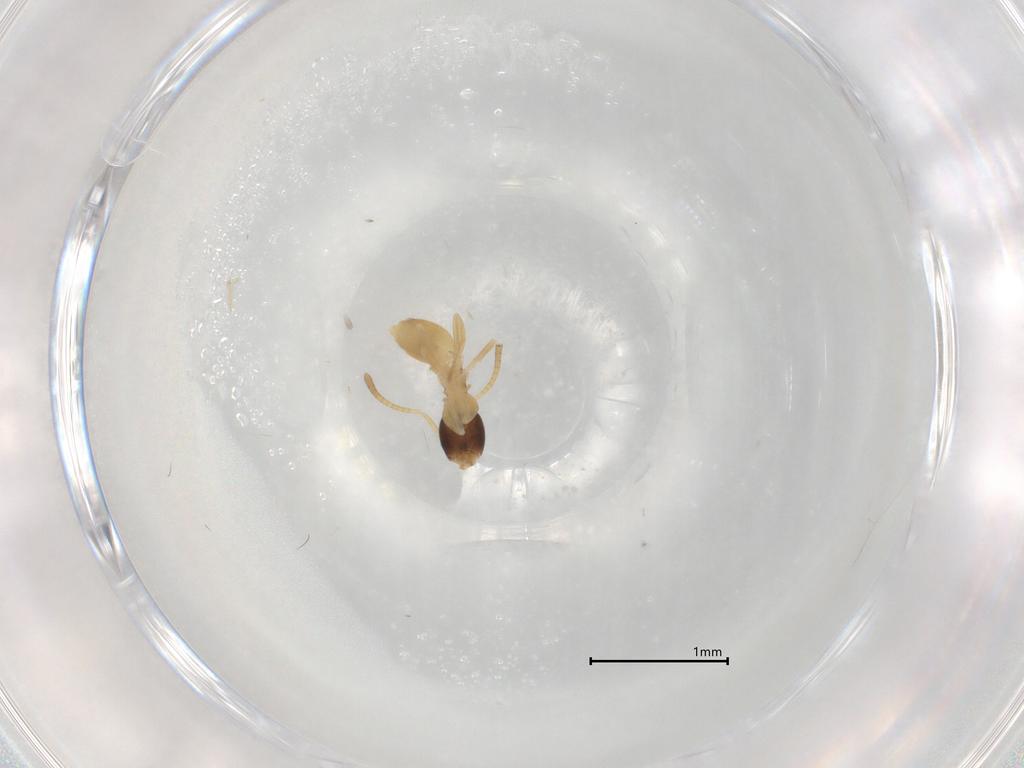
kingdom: Animalia
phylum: Arthropoda
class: Insecta
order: Hymenoptera
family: Formicidae
